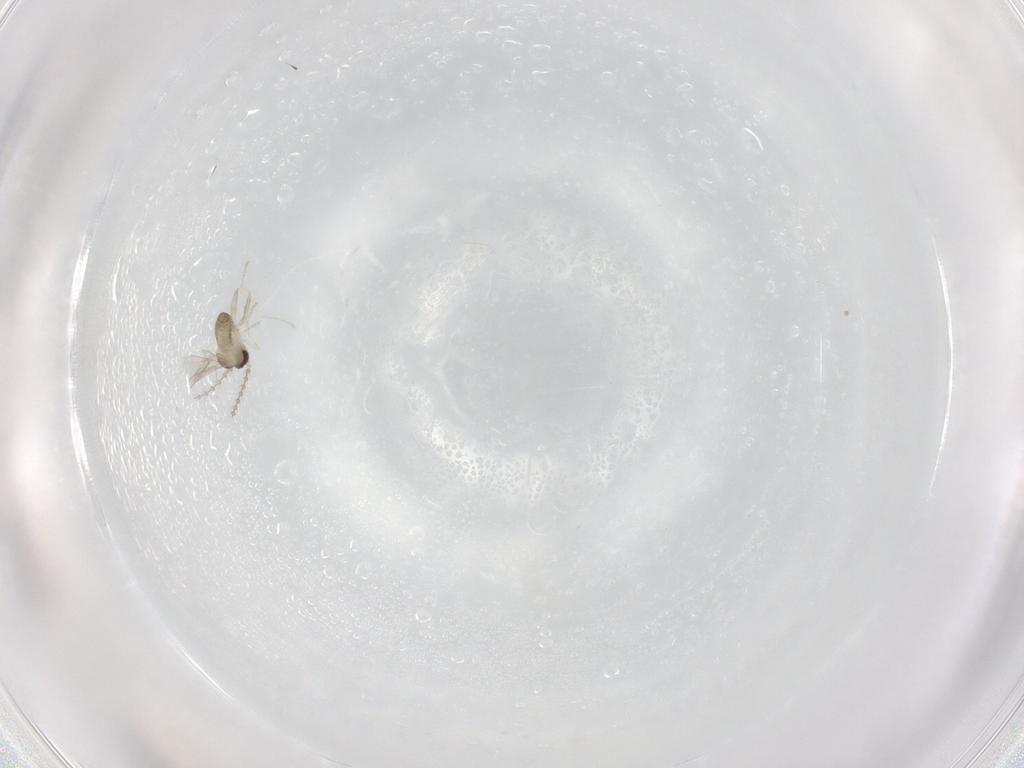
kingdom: Animalia
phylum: Arthropoda
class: Insecta
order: Diptera
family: Cecidomyiidae
